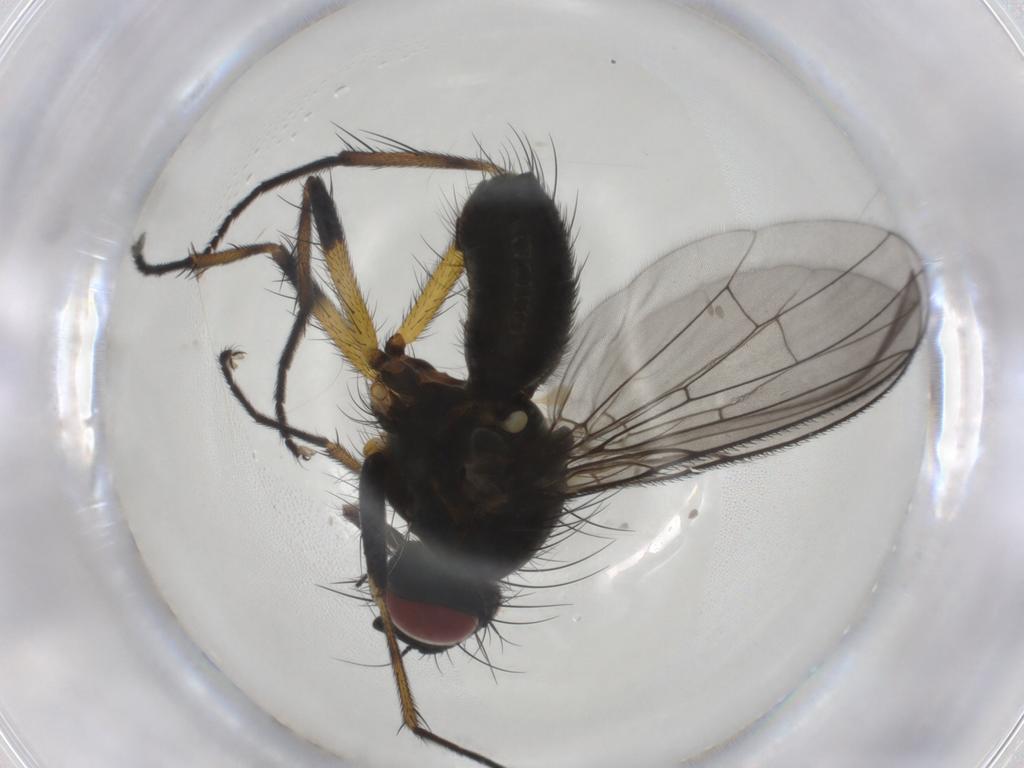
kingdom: Animalia
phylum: Arthropoda
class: Insecta
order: Diptera
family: Muscidae
